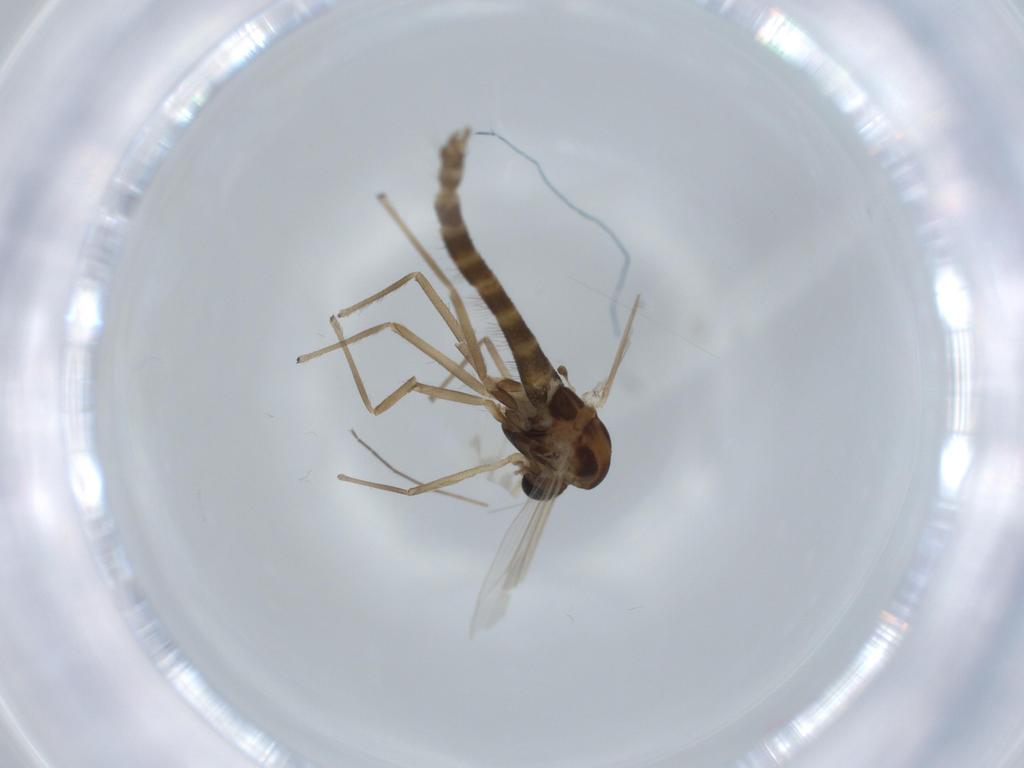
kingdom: Animalia
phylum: Arthropoda
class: Insecta
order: Diptera
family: Chironomidae
